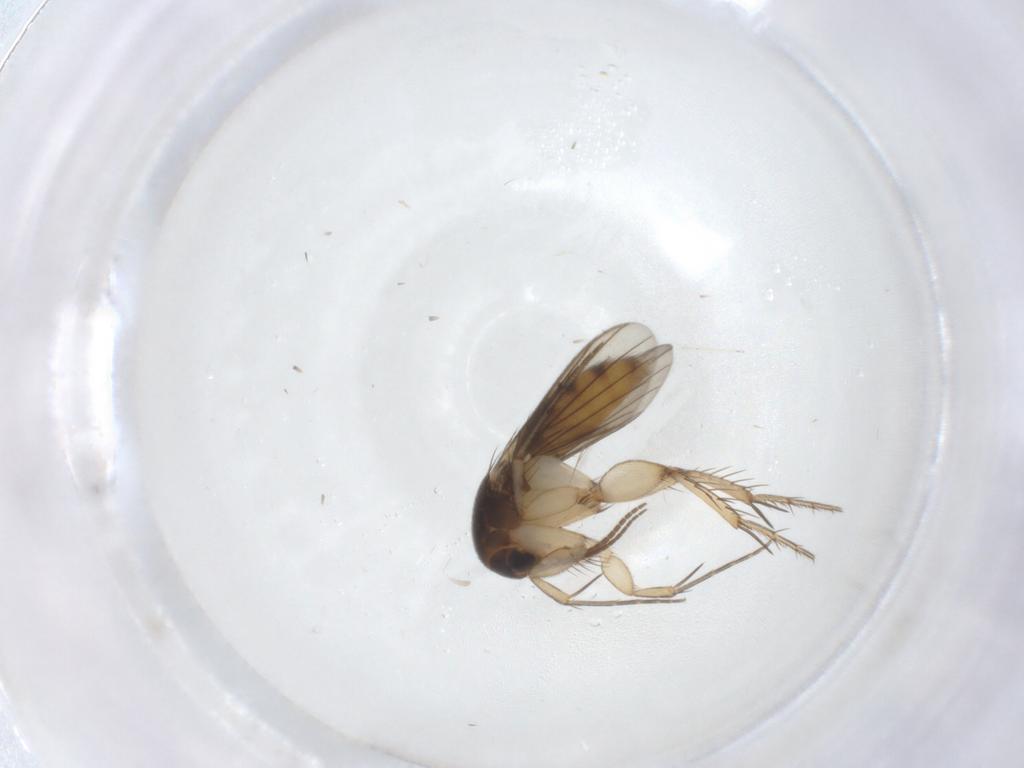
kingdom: Animalia
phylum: Arthropoda
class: Insecta
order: Diptera
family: Mycetophilidae
